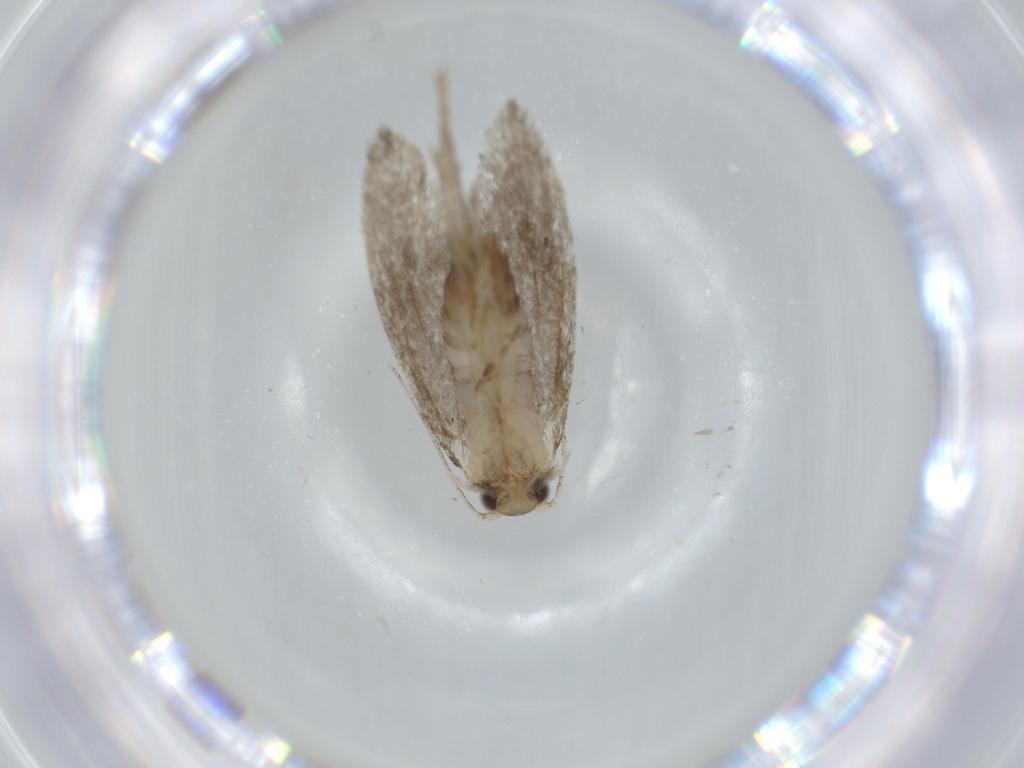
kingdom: Animalia
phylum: Arthropoda
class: Insecta
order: Lepidoptera
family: Tineidae
